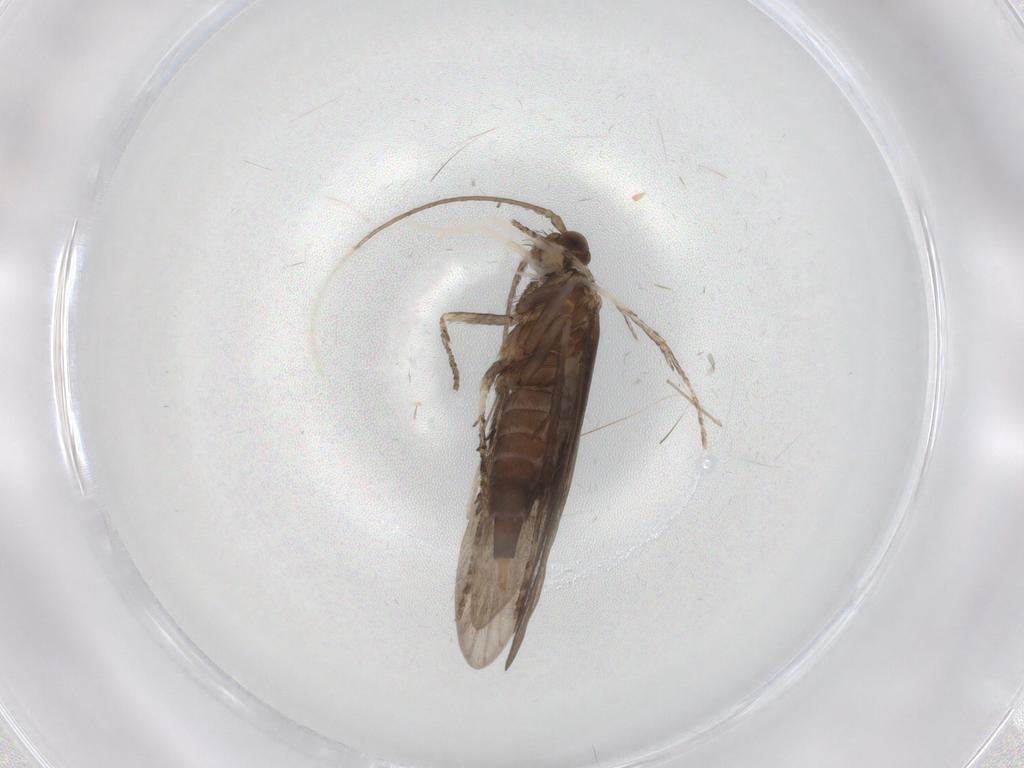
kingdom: Animalia
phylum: Arthropoda
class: Insecta
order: Trichoptera
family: Xiphocentronidae
